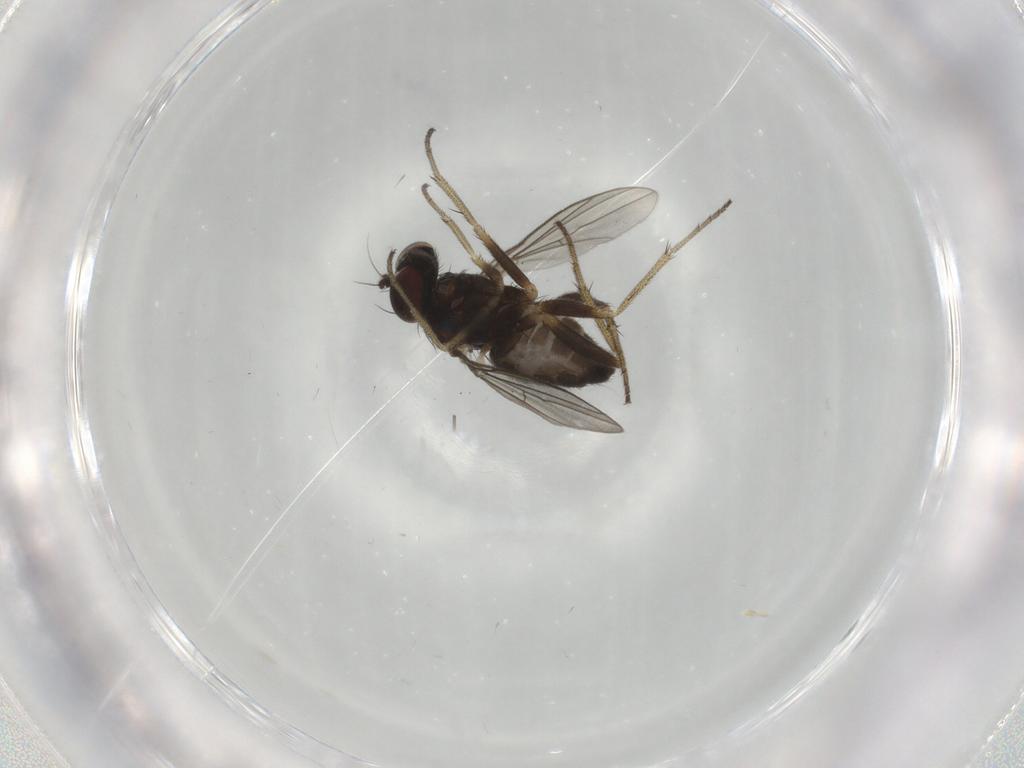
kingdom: Animalia
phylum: Arthropoda
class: Insecta
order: Diptera
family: Dolichopodidae
